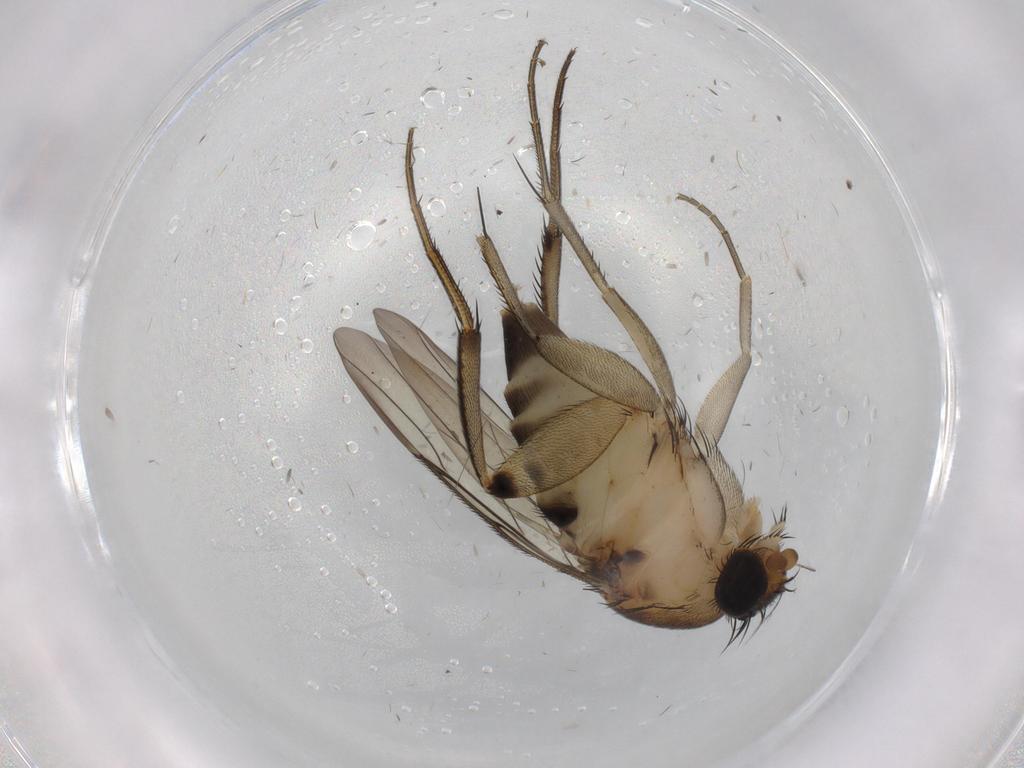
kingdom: Animalia
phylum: Arthropoda
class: Insecta
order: Diptera
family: Phoridae
